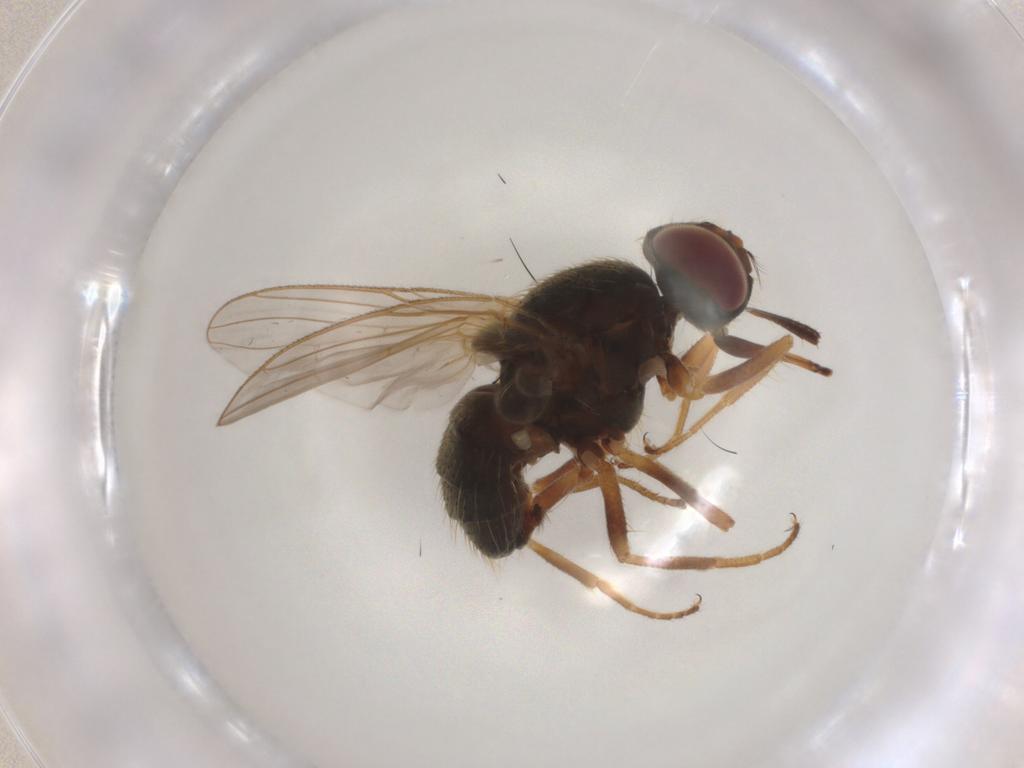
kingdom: Animalia
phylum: Arthropoda
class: Insecta
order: Diptera
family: Muscidae
